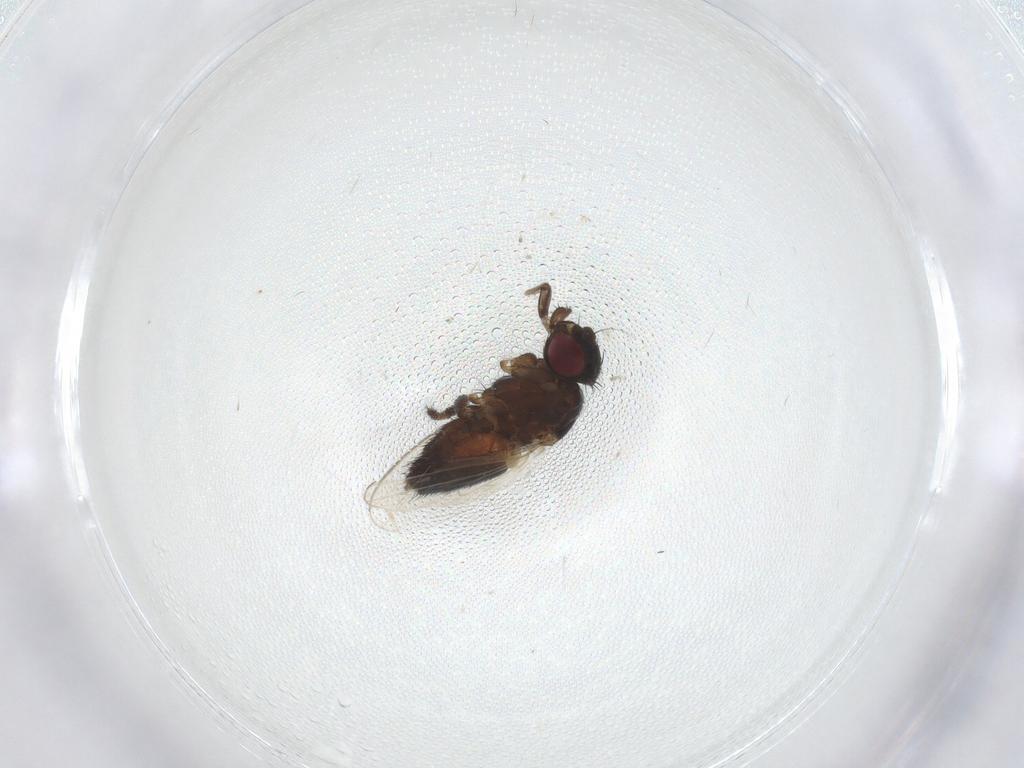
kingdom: Animalia
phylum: Arthropoda
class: Insecta
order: Diptera
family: Milichiidae
